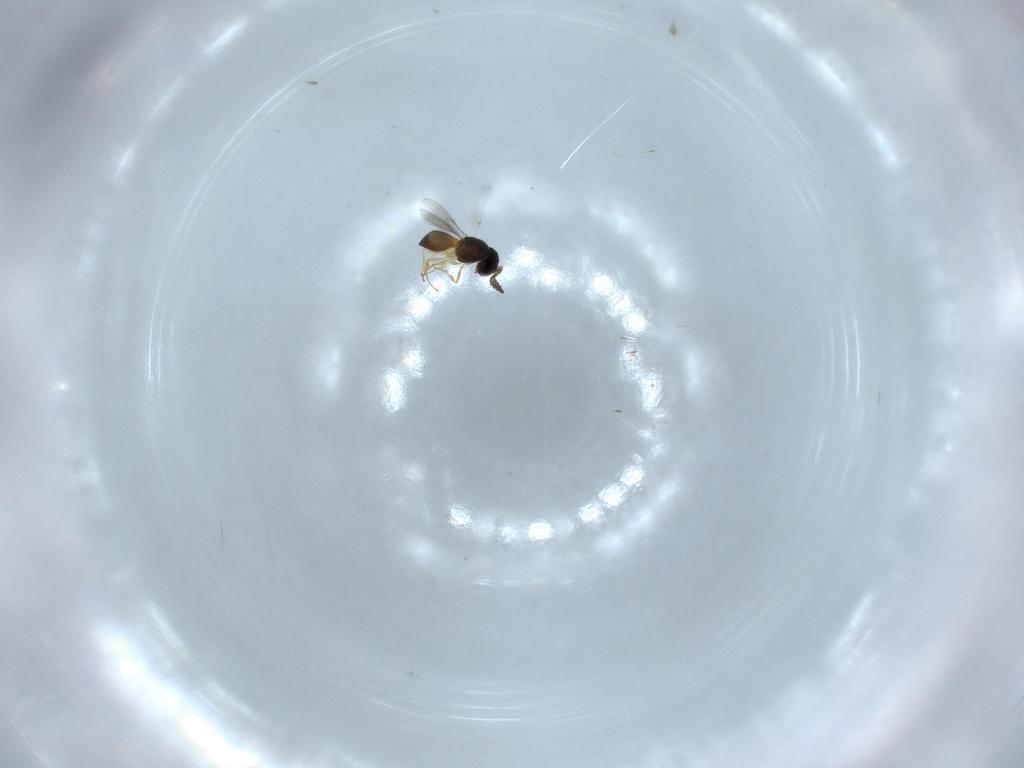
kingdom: Animalia
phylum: Arthropoda
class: Insecta
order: Hymenoptera
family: Scelionidae
